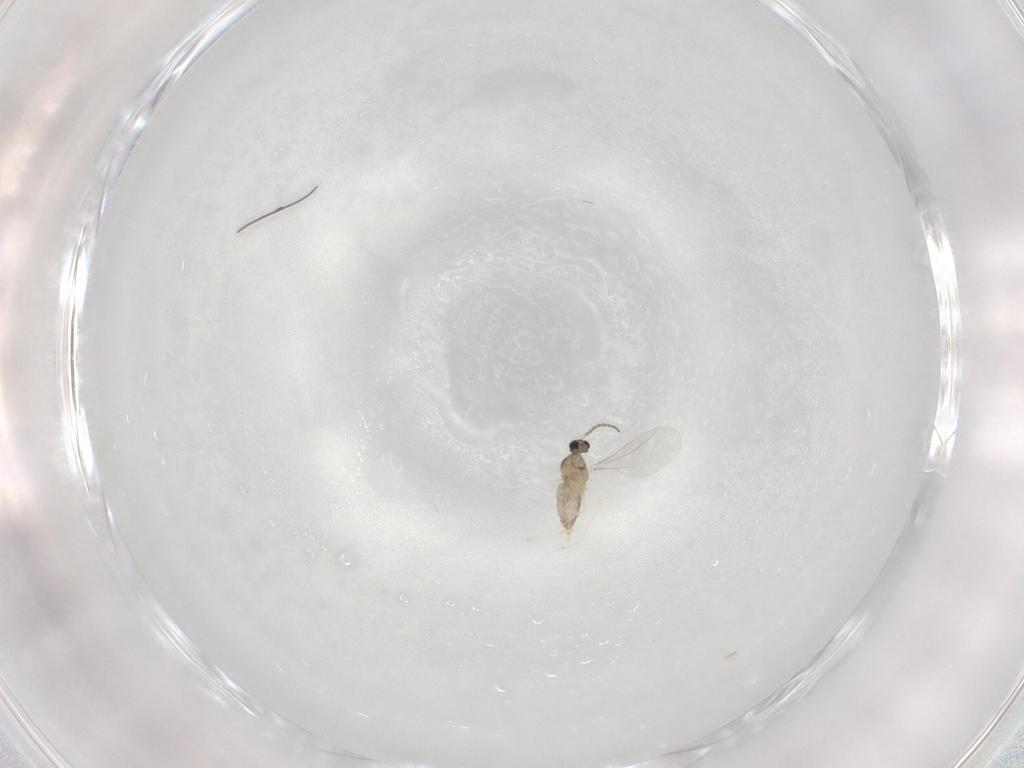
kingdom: Animalia
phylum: Arthropoda
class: Insecta
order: Diptera
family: Cecidomyiidae
